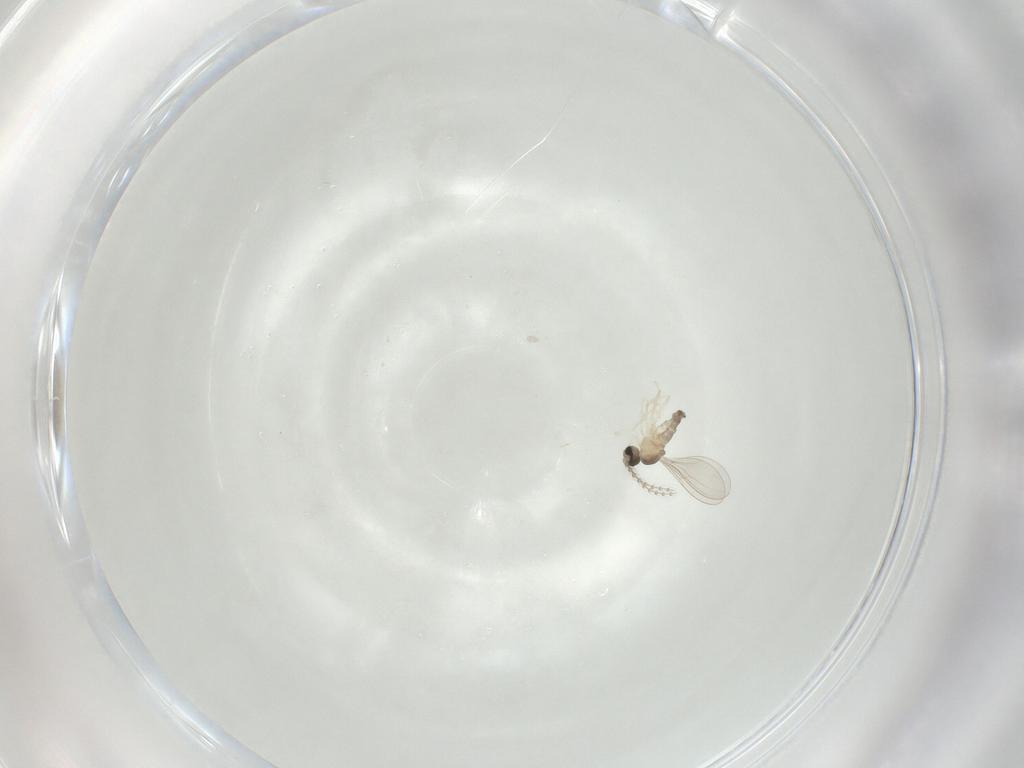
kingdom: Animalia
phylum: Arthropoda
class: Insecta
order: Diptera
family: Cecidomyiidae
